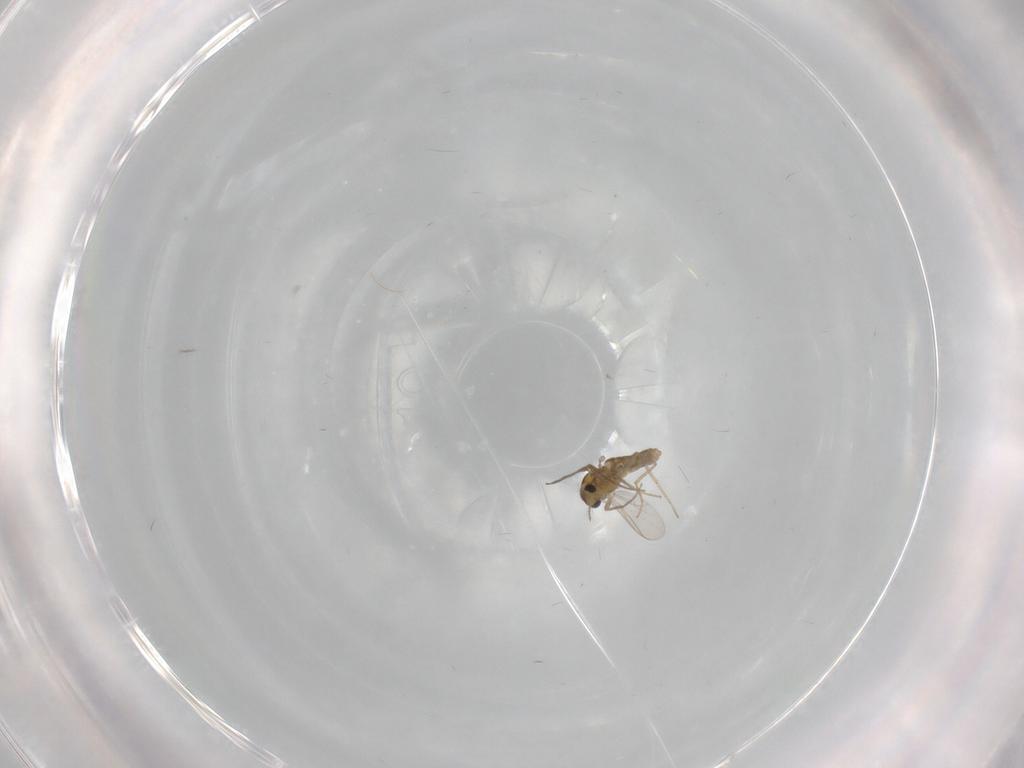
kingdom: Animalia
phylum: Arthropoda
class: Insecta
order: Diptera
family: Chironomidae
